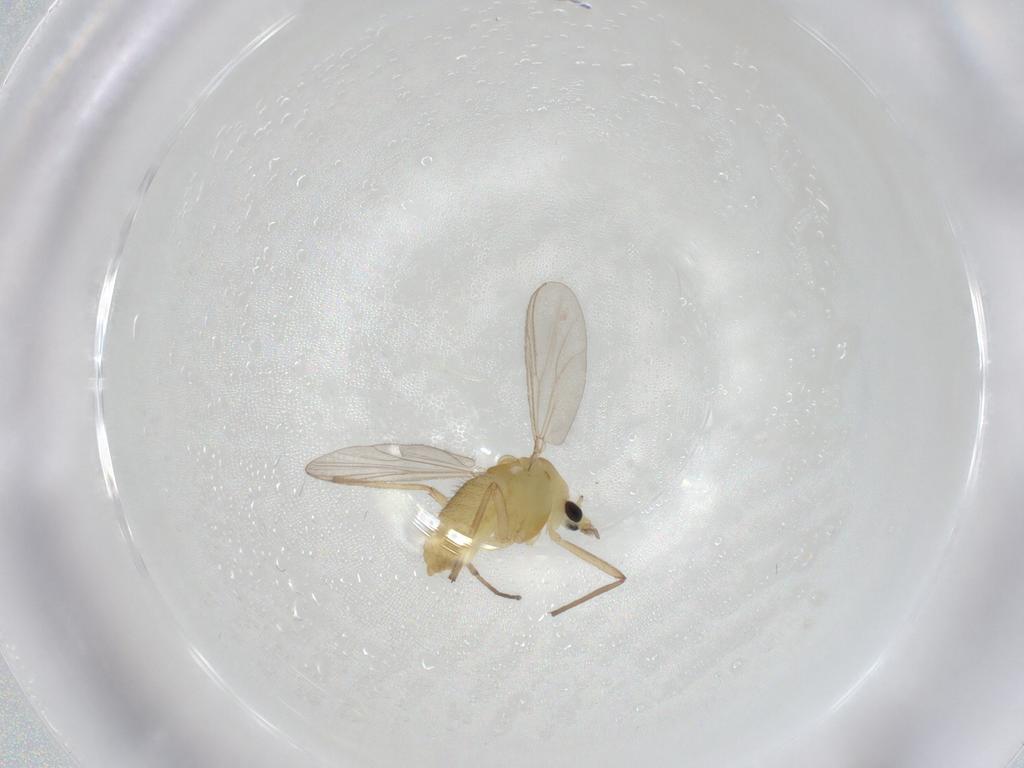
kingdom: Animalia
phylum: Arthropoda
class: Insecta
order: Diptera
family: Chironomidae
